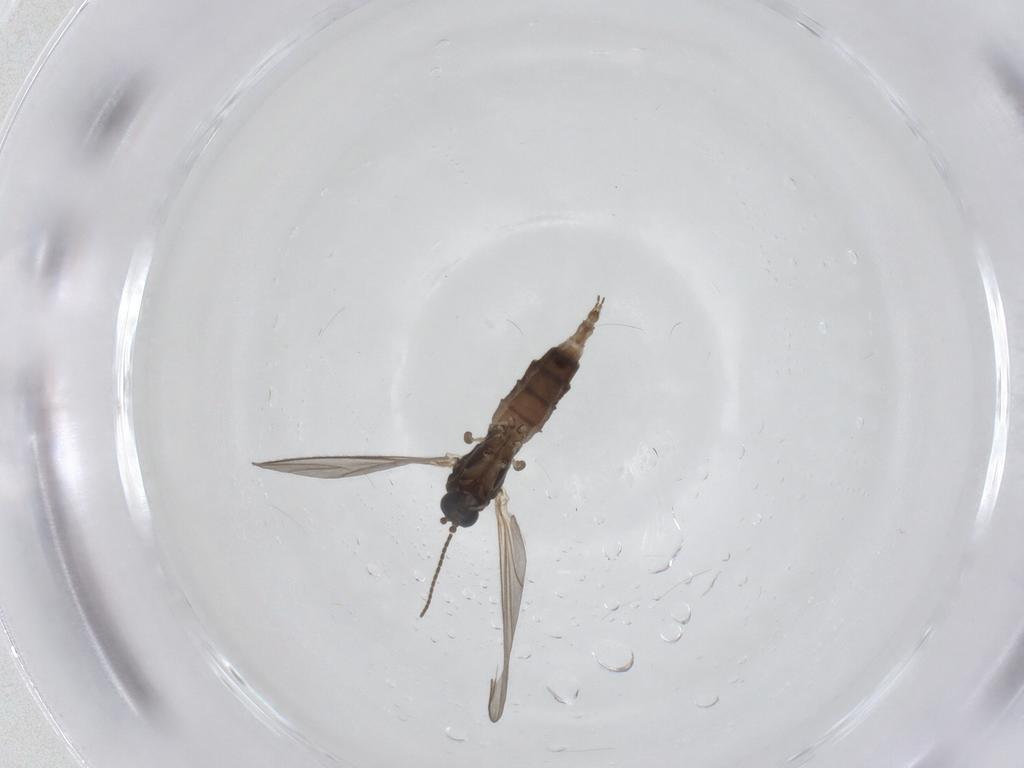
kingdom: Animalia
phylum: Arthropoda
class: Insecta
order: Diptera
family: Sciaridae
